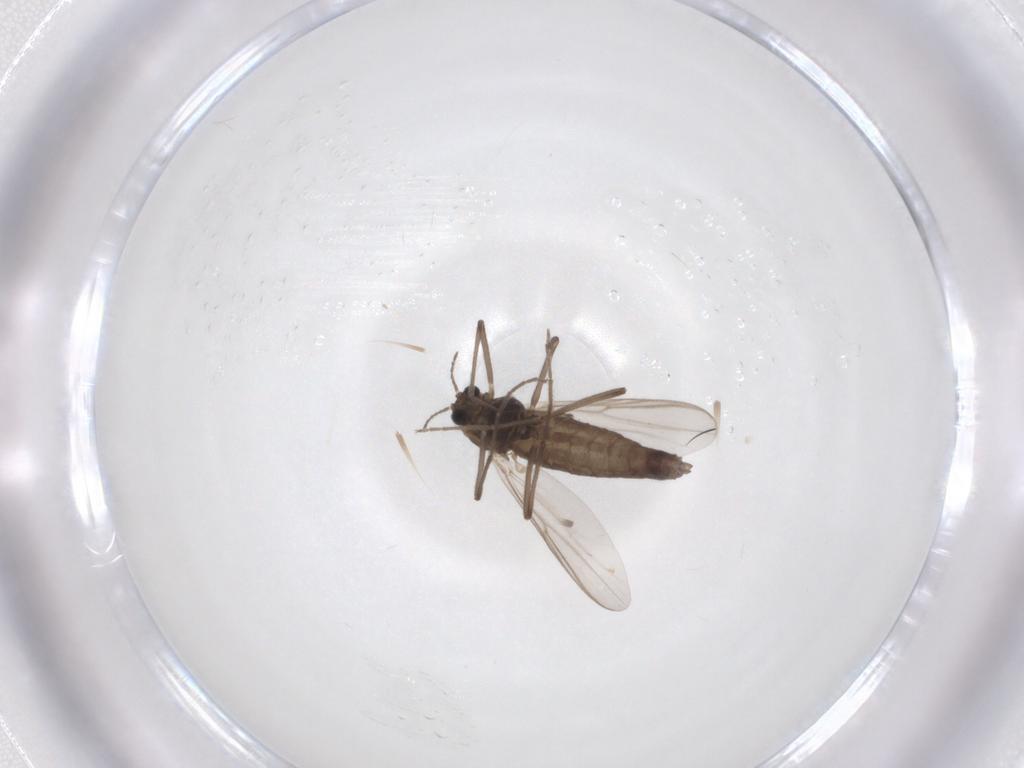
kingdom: Animalia
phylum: Arthropoda
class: Insecta
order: Diptera
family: Chironomidae
